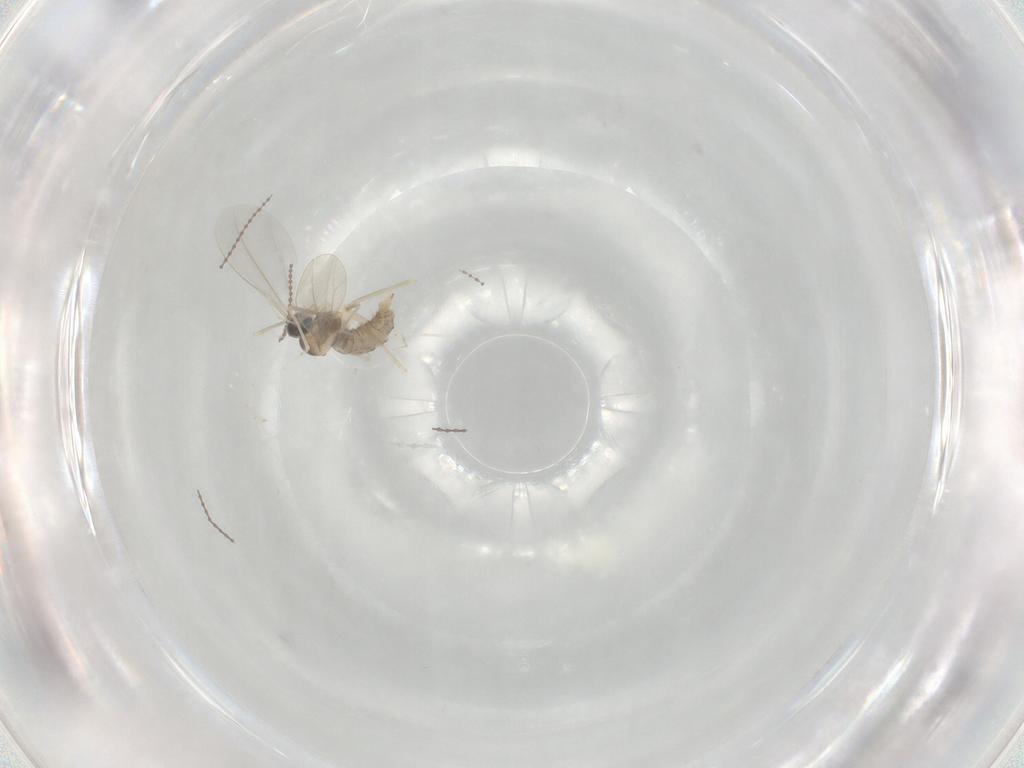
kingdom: Animalia
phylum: Arthropoda
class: Insecta
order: Diptera
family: Cecidomyiidae
